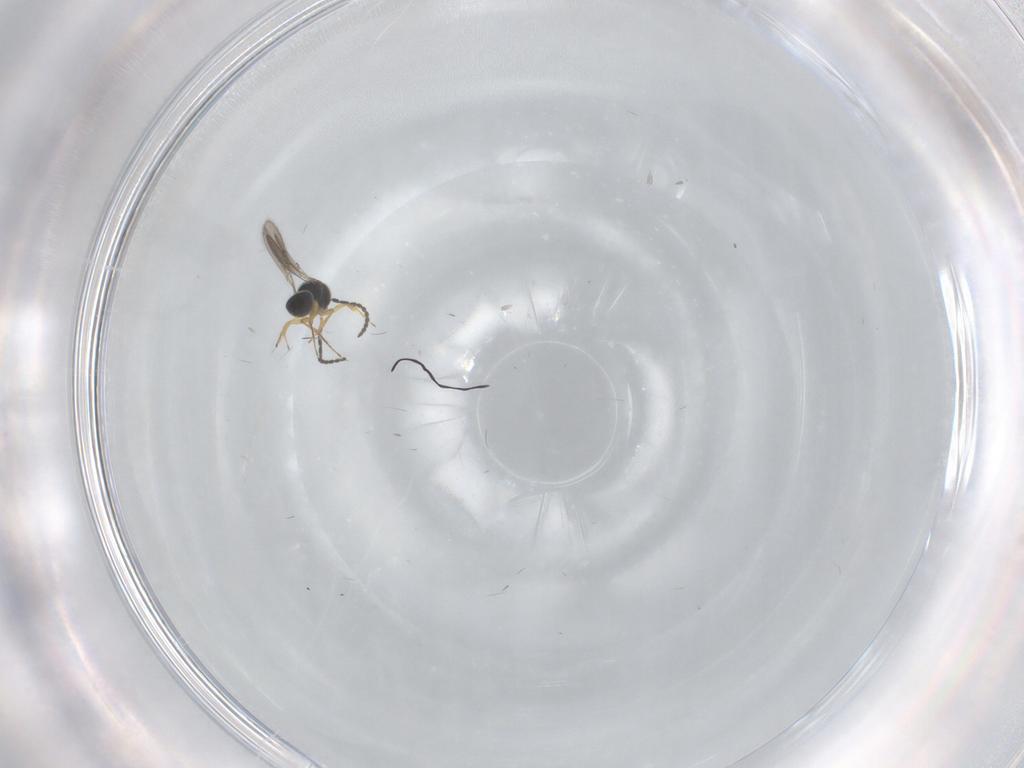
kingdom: Animalia
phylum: Arthropoda
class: Insecta
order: Hymenoptera
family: Scelionidae
